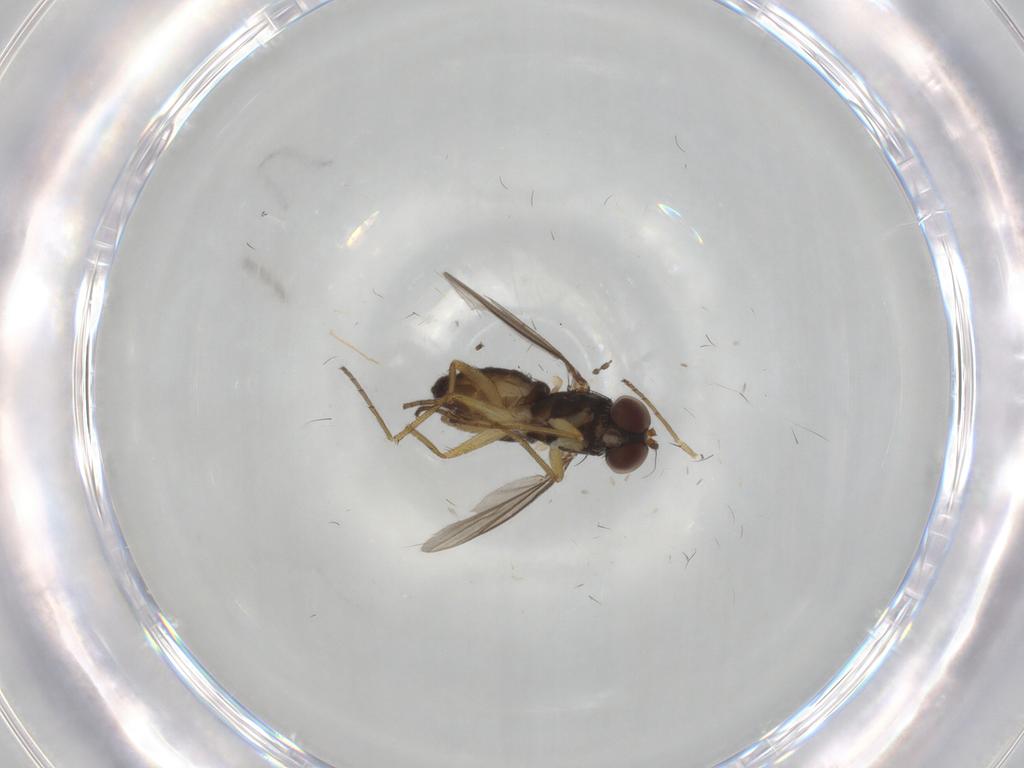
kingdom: Animalia
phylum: Arthropoda
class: Insecta
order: Diptera
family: Dolichopodidae
